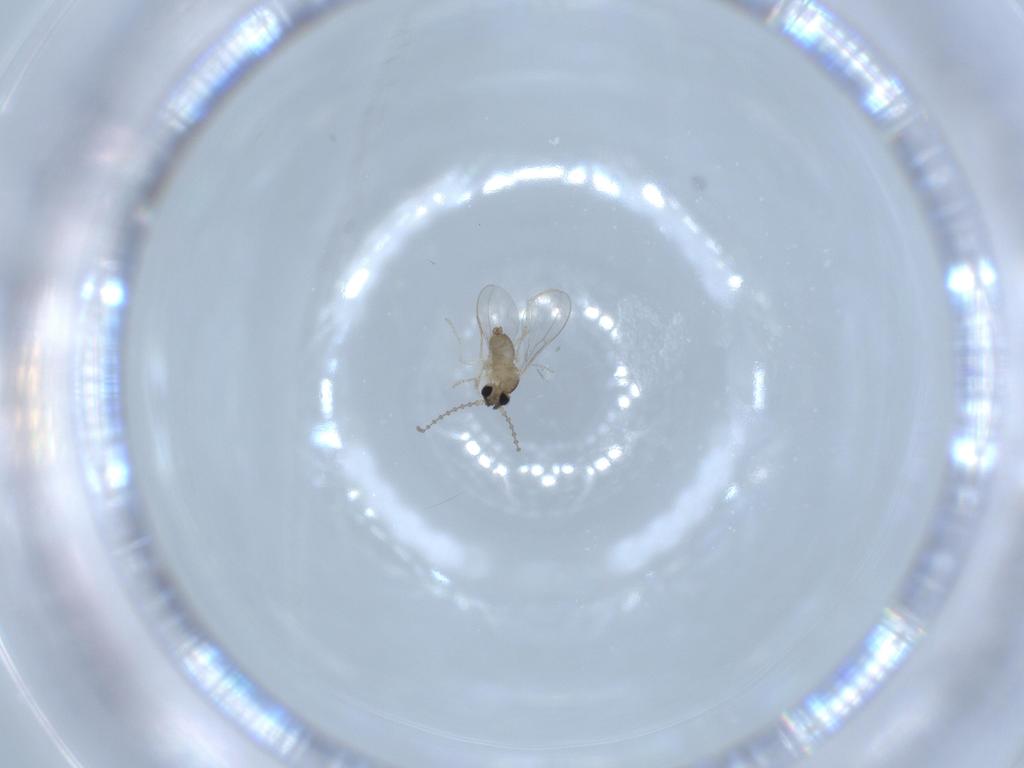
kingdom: Animalia
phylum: Arthropoda
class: Insecta
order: Diptera
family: Cecidomyiidae
